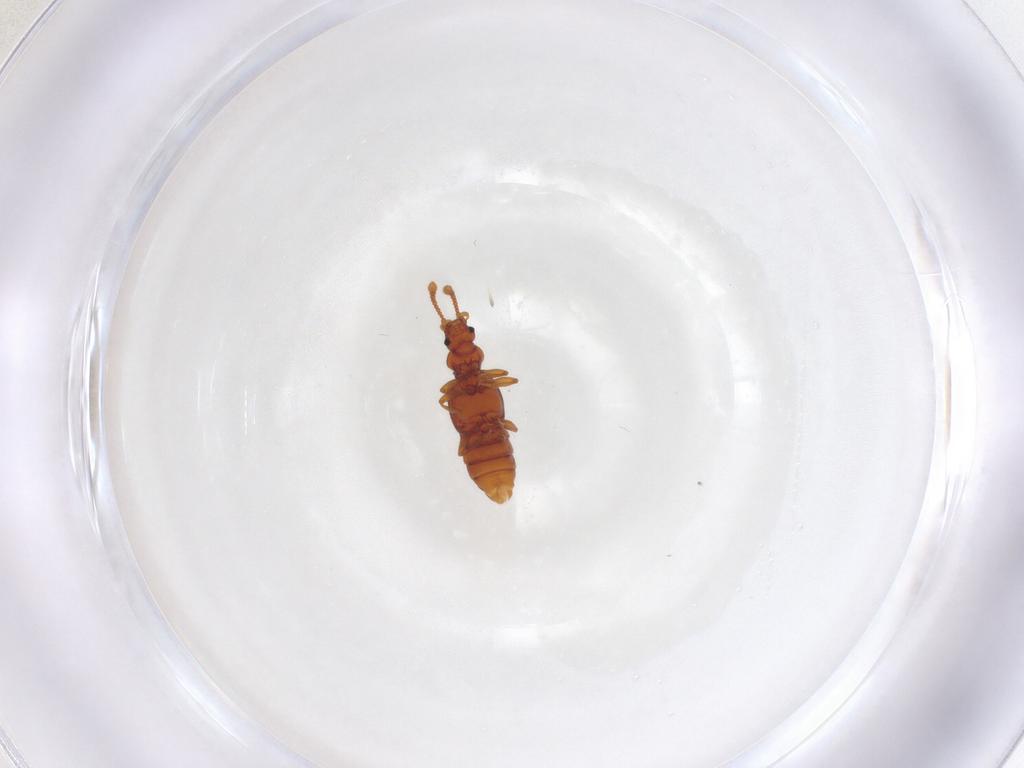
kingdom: Animalia
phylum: Arthropoda
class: Insecta
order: Coleoptera
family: Staphylinidae
